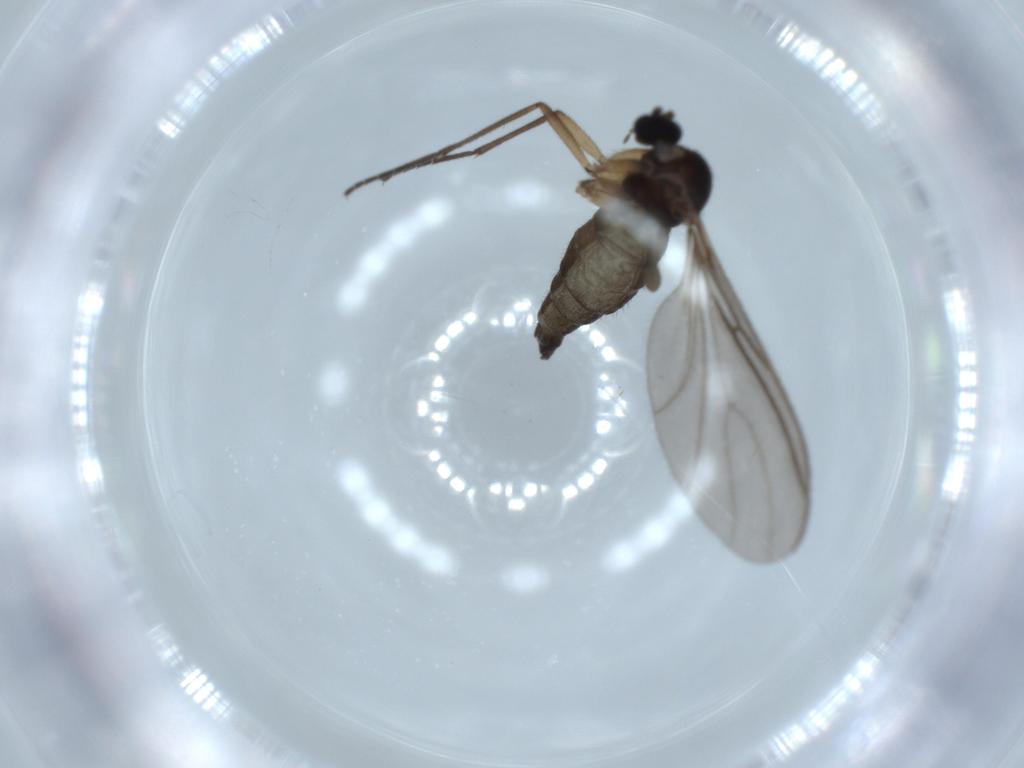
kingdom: Animalia
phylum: Arthropoda
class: Insecta
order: Diptera
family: Sciaridae
